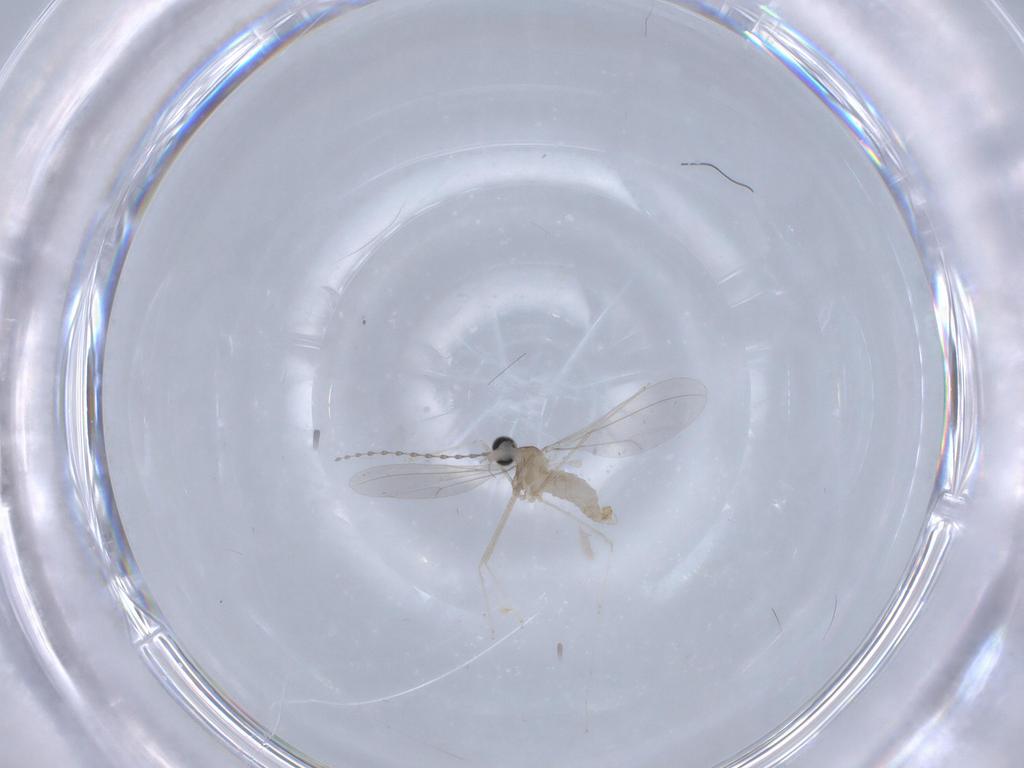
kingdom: Animalia
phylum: Arthropoda
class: Insecta
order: Diptera
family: Cecidomyiidae
